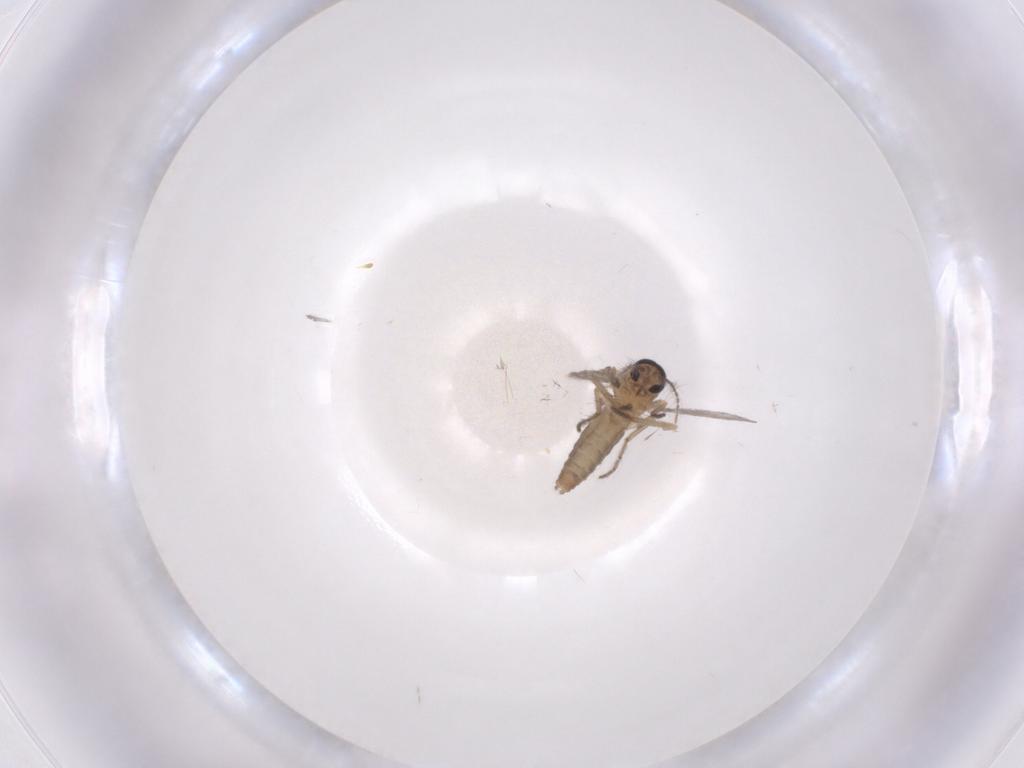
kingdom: Animalia
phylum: Arthropoda
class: Insecta
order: Diptera
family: Ceratopogonidae
